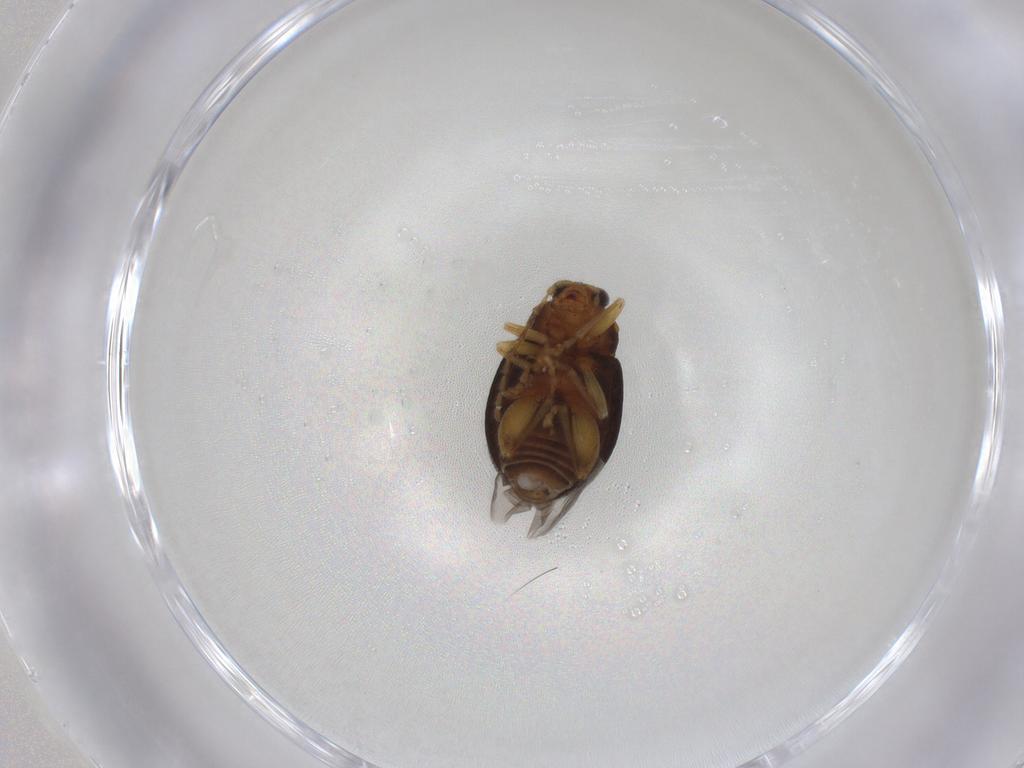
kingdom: Animalia
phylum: Arthropoda
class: Insecta
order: Coleoptera
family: Chrysomelidae
